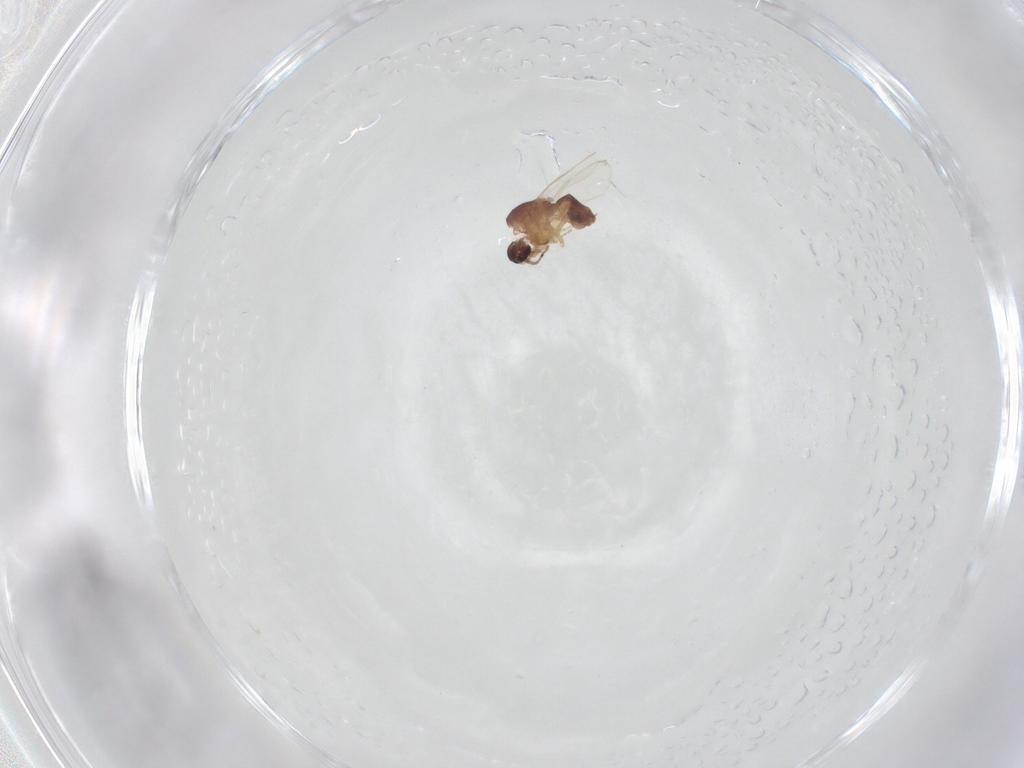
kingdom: Animalia
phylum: Arthropoda
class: Insecta
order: Diptera
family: Ceratopogonidae
